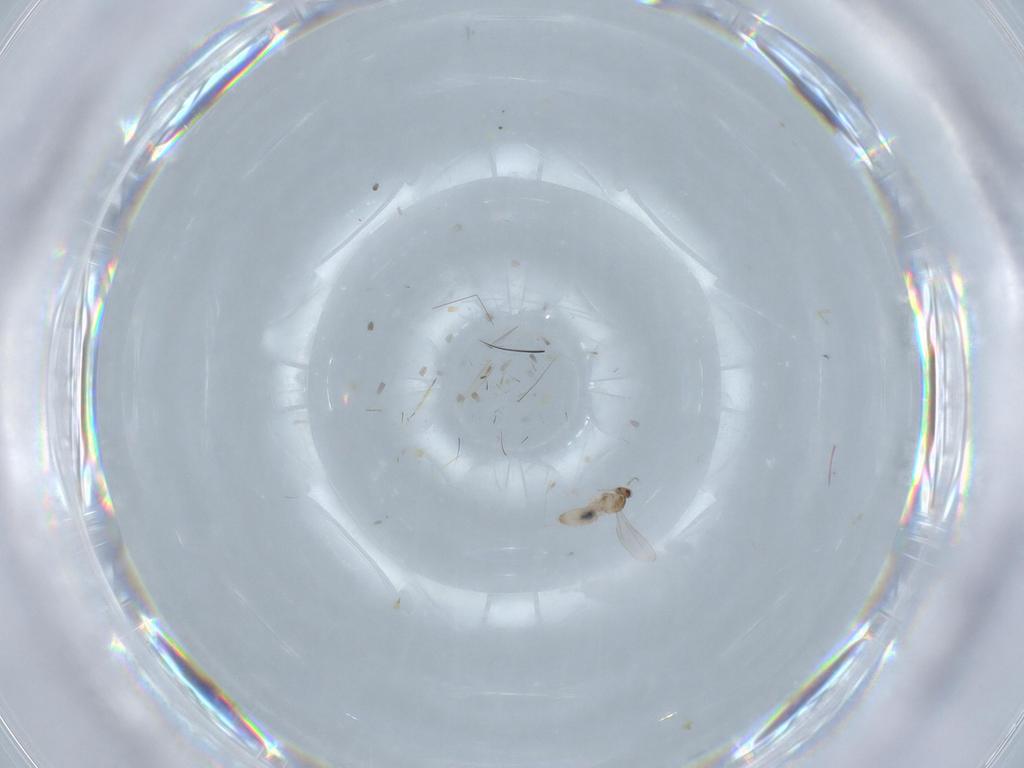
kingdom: Animalia
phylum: Arthropoda
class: Insecta
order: Diptera
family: Cecidomyiidae
